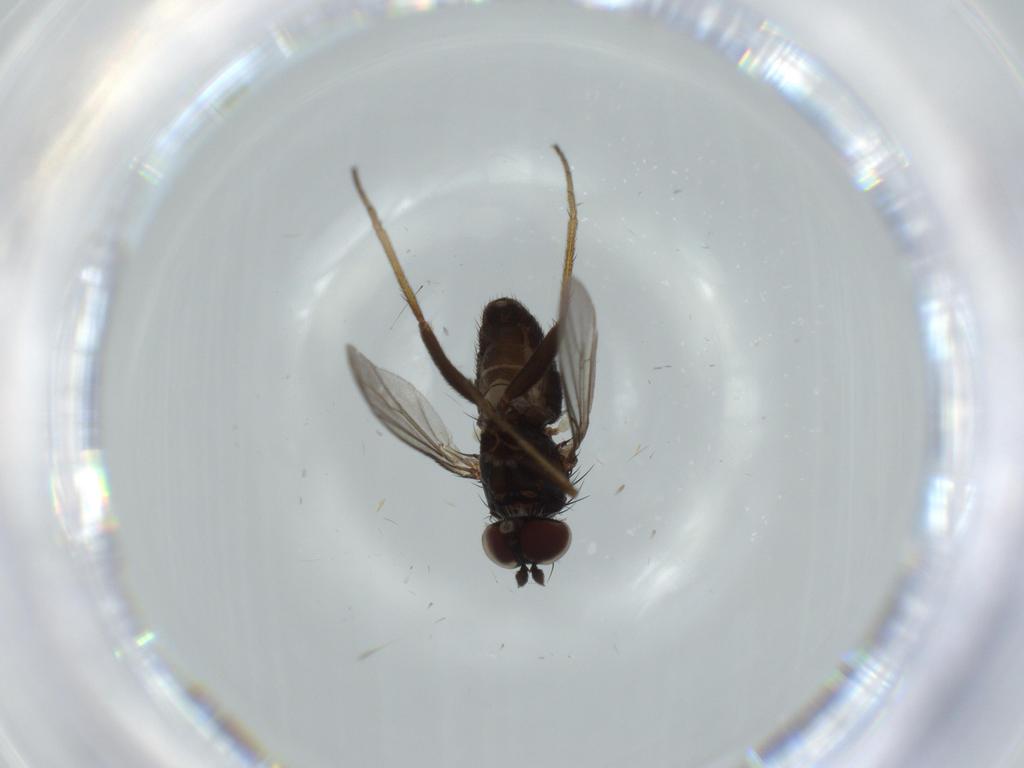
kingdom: Animalia
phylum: Arthropoda
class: Insecta
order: Diptera
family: Dolichopodidae
